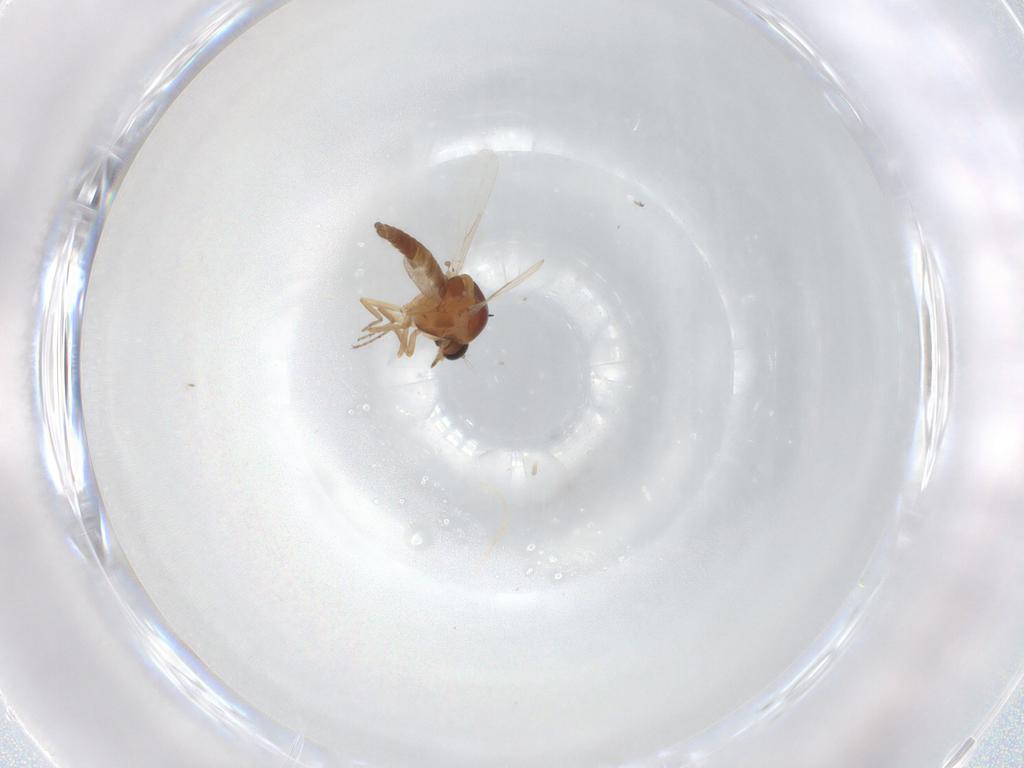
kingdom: Animalia
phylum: Arthropoda
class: Insecta
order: Diptera
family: Ceratopogonidae
